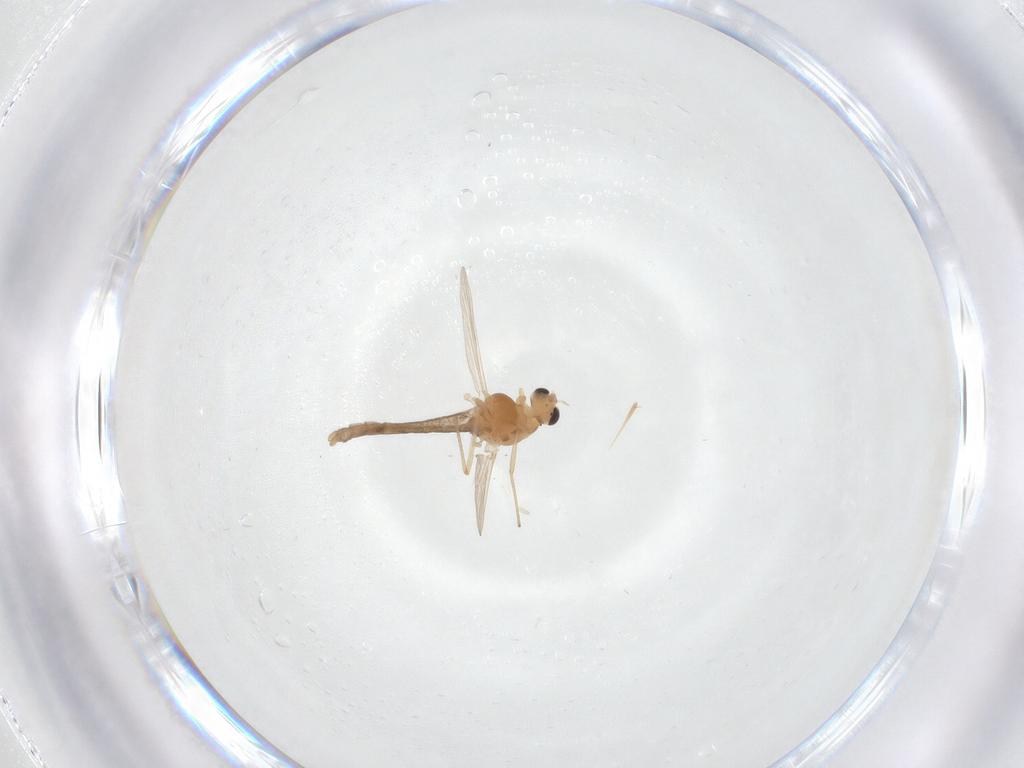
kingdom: Animalia
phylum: Arthropoda
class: Insecta
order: Diptera
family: Chironomidae
